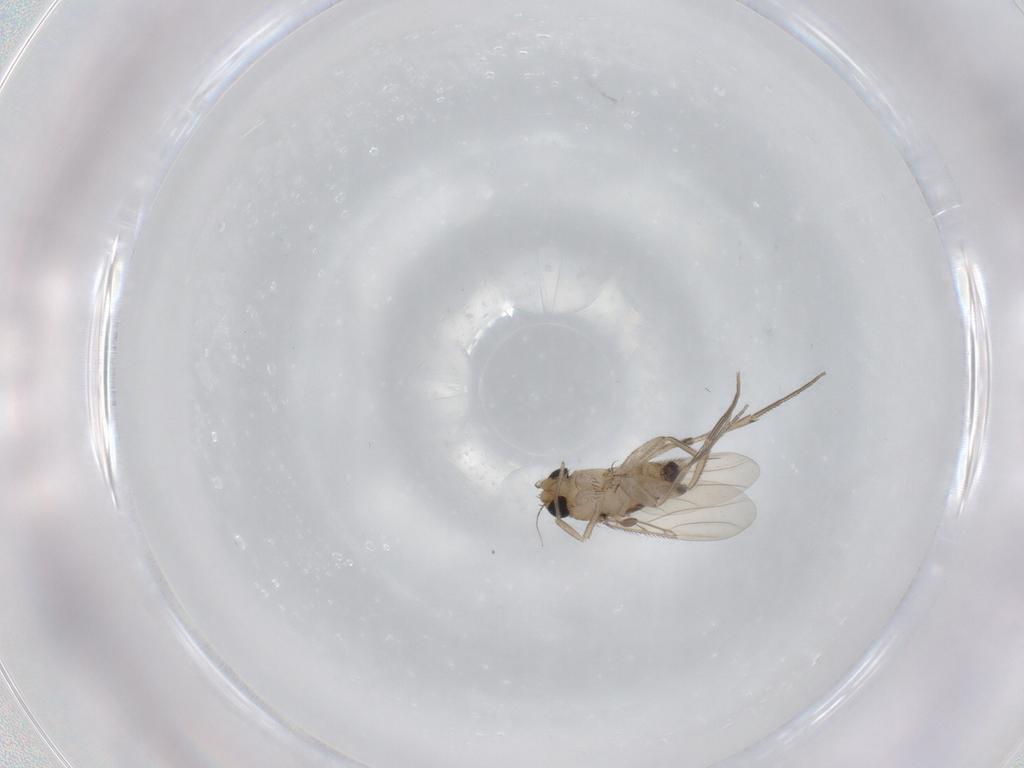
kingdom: Animalia
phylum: Arthropoda
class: Insecta
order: Diptera
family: Phoridae
